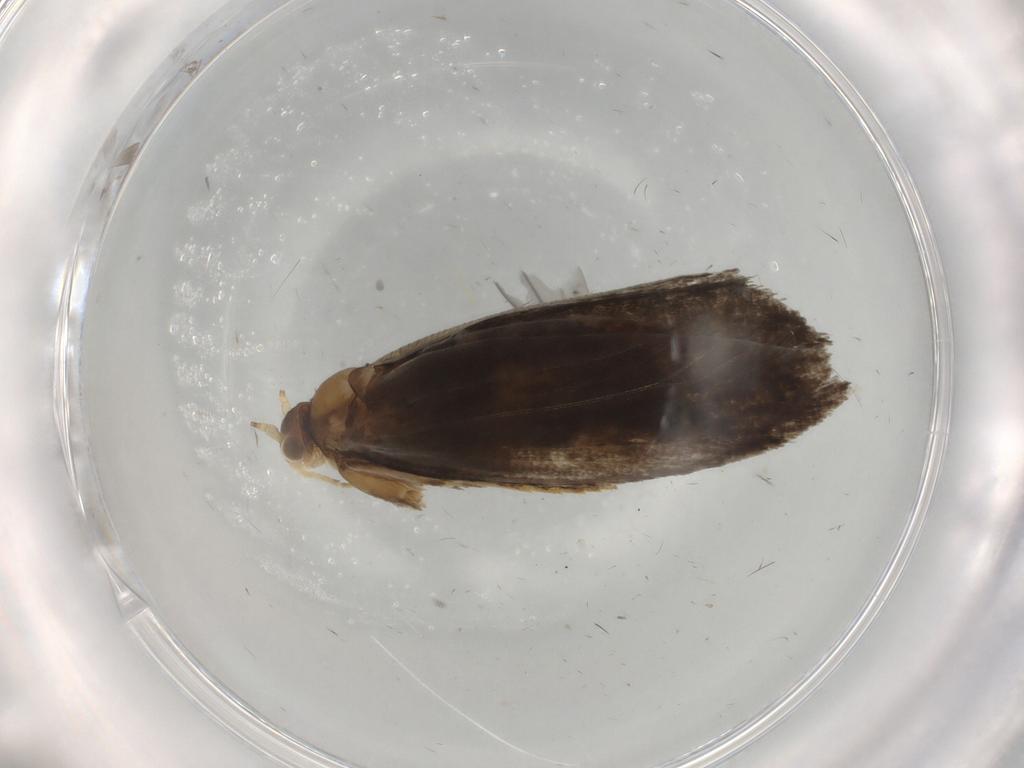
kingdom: Animalia
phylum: Arthropoda
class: Insecta
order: Lepidoptera
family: Tineidae
